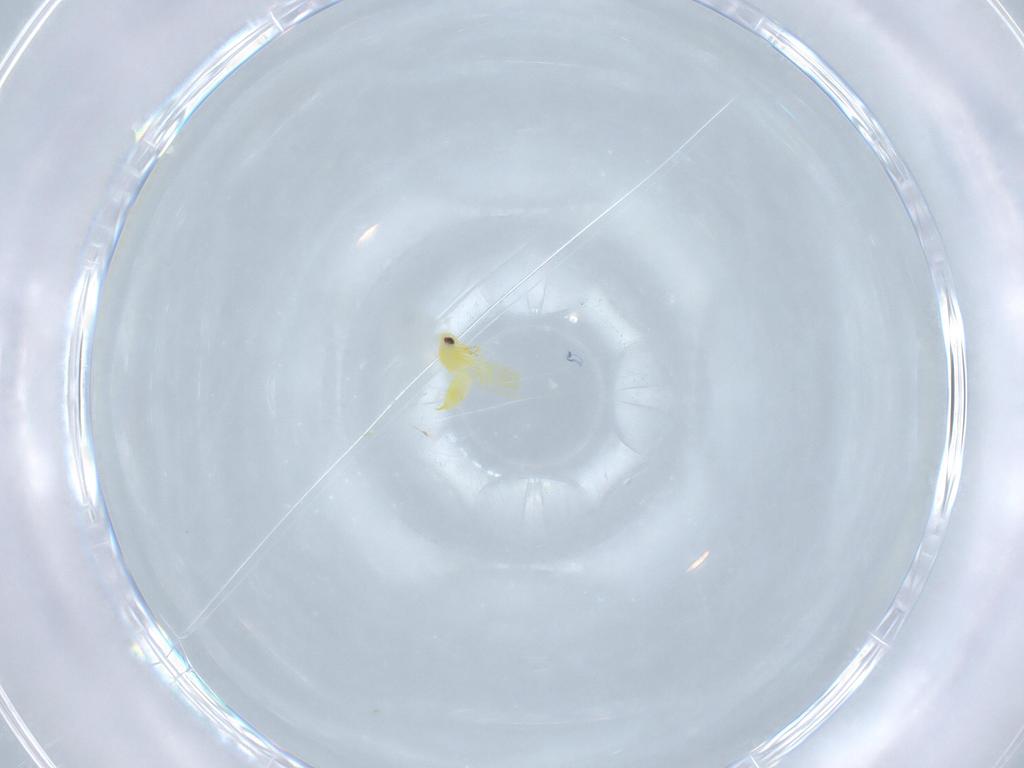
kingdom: Animalia
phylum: Arthropoda
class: Insecta
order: Hemiptera
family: Aleyrodidae
